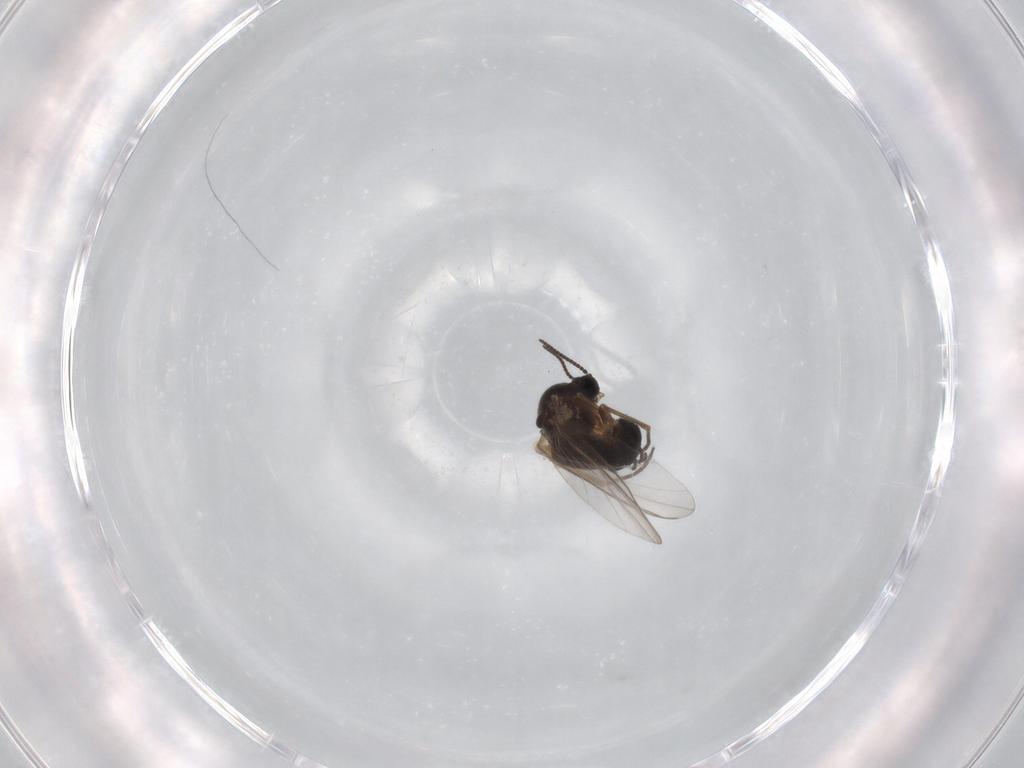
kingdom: Animalia
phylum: Arthropoda
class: Insecta
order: Diptera
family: Sciaridae
